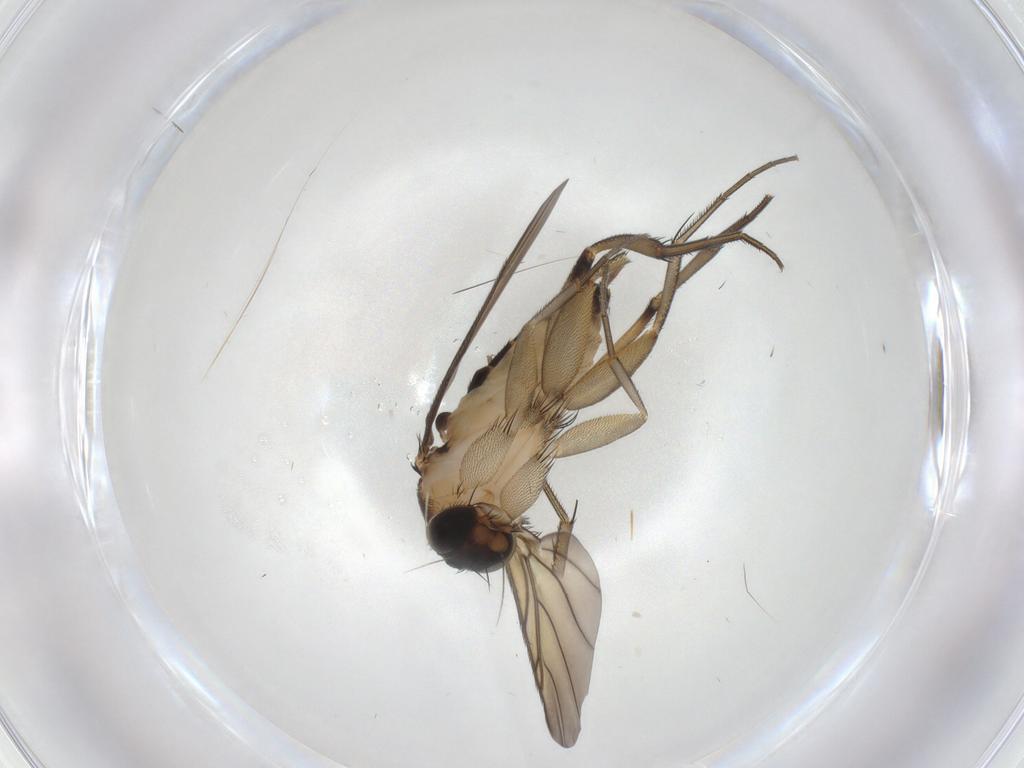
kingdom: Animalia
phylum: Arthropoda
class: Insecta
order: Diptera
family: Phoridae
